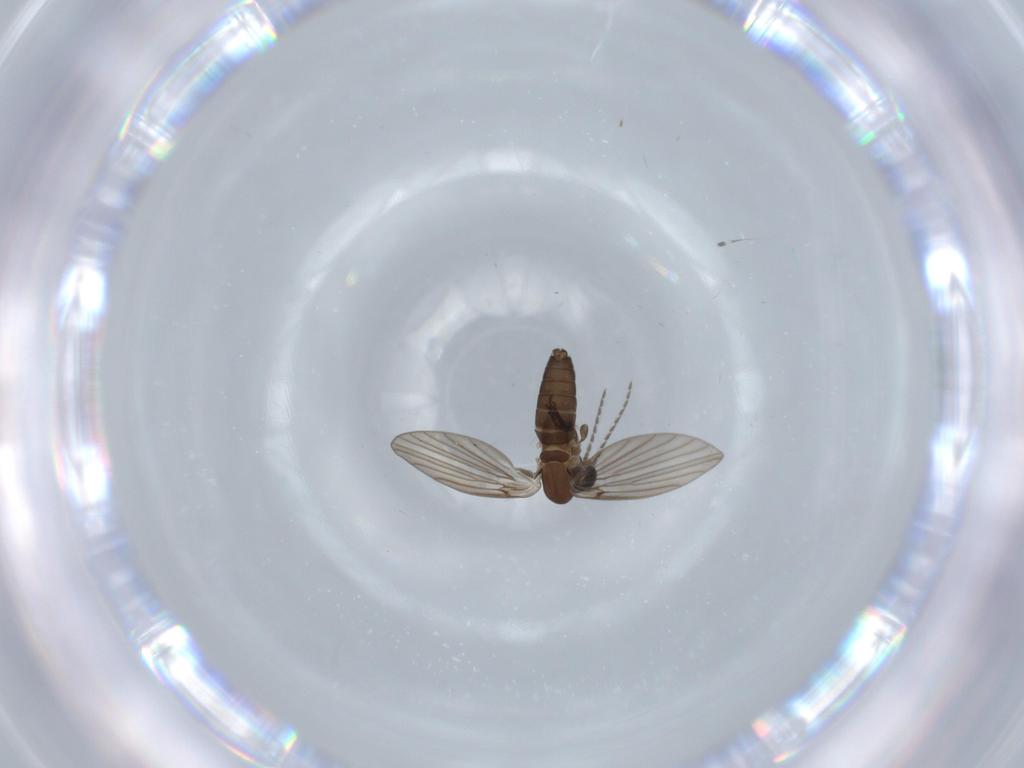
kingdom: Animalia
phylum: Arthropoda
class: Insecta
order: Diptera
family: Psychodidae
